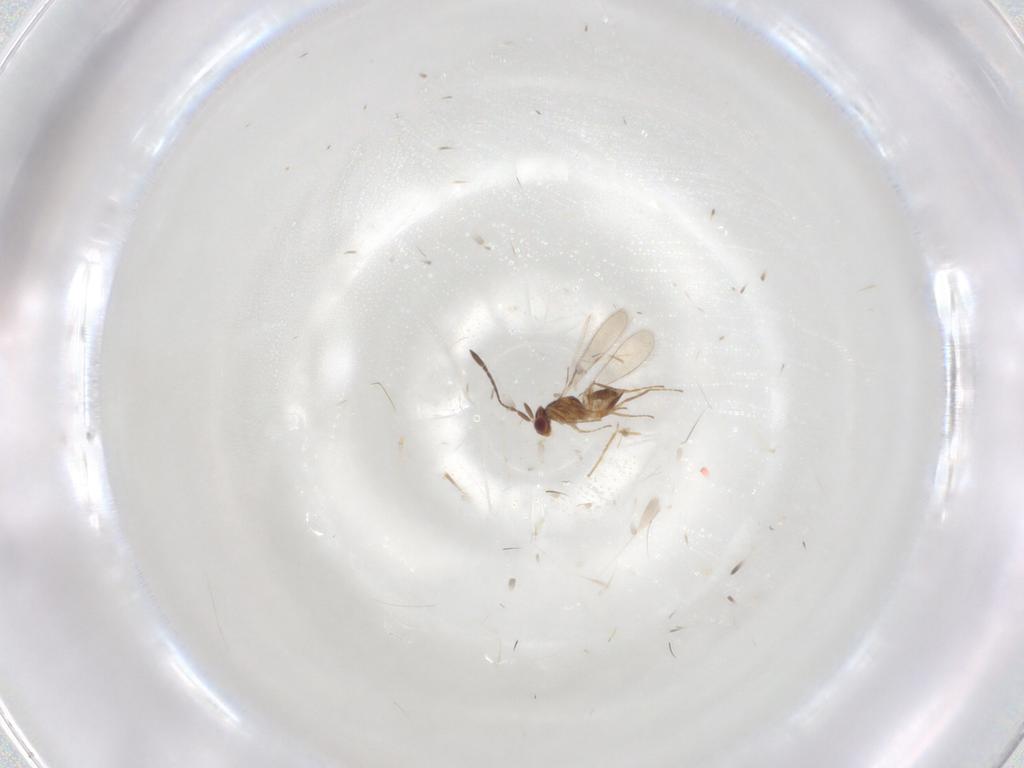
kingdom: Animalia
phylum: Arthropoda
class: Insecta
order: Hymenoptera
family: Braconidae
